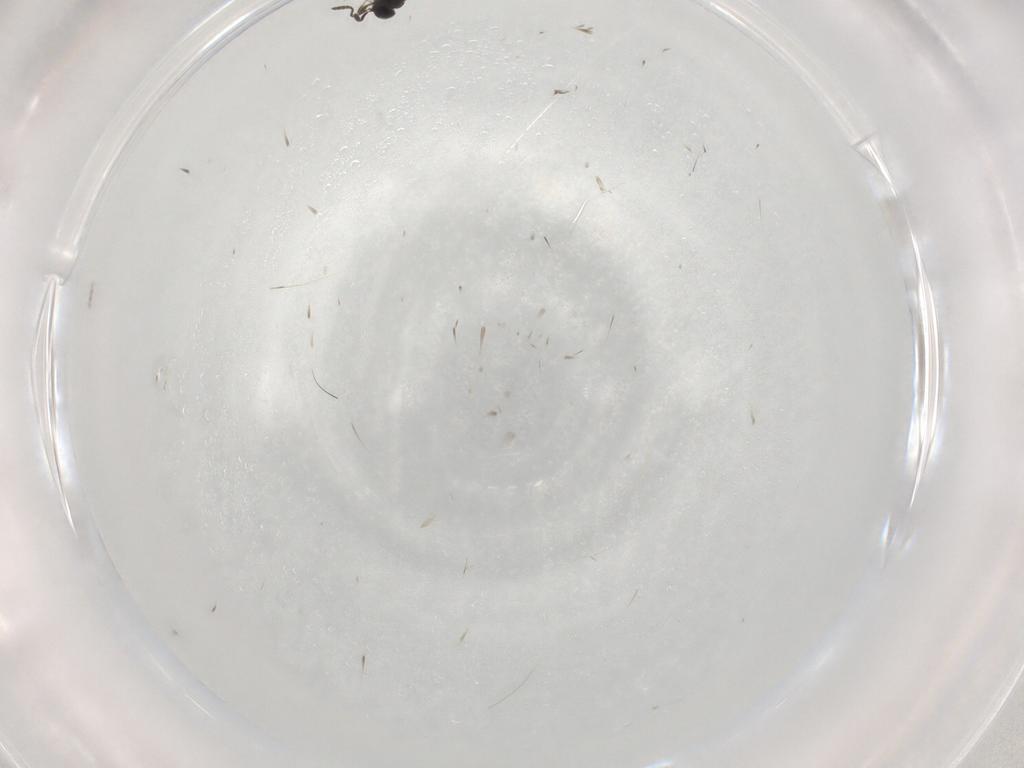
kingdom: Animalia
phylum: Arthropoda
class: Insecta
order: Hymenoptera
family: Scelionidae
